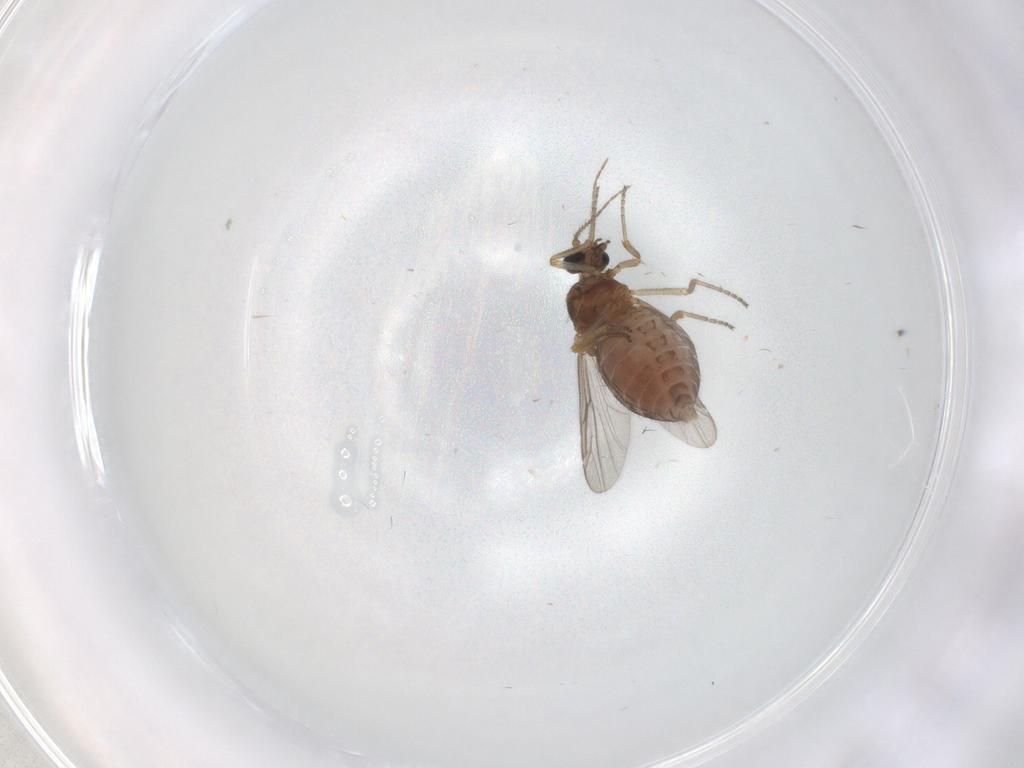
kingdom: Animalia
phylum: Arthropoda
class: Insecta
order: Diptera
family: Ceratopogonidae
